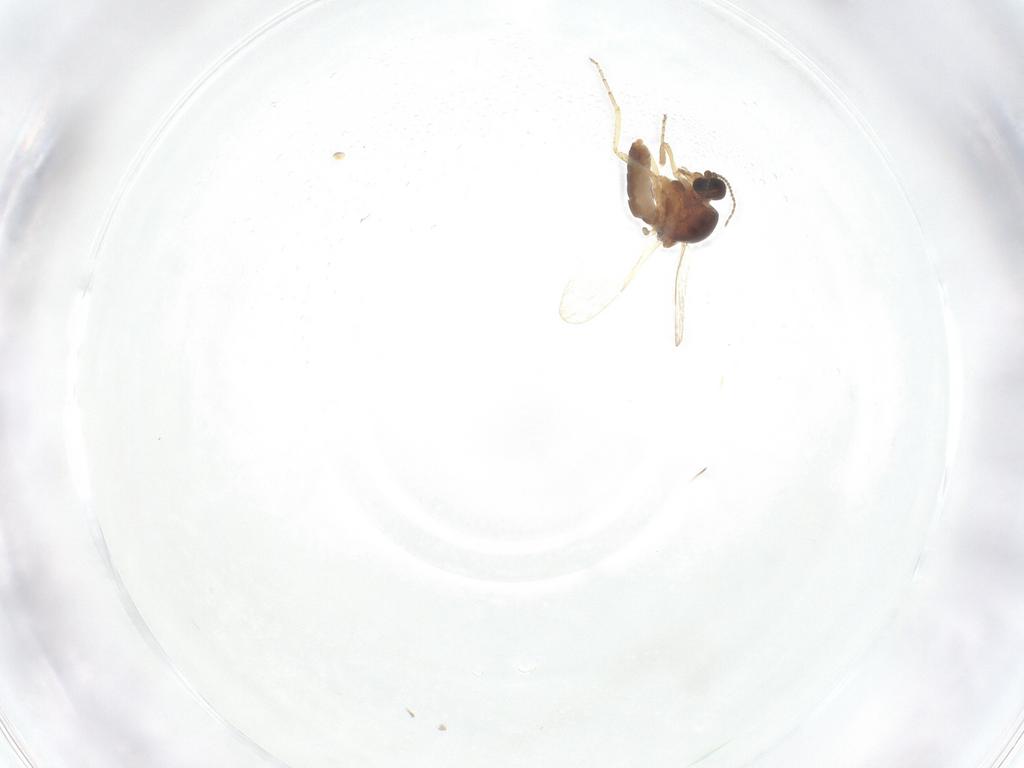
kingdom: Animalia
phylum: Arthropoda
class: Insecta
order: Diptera
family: Ceratopogonidae
